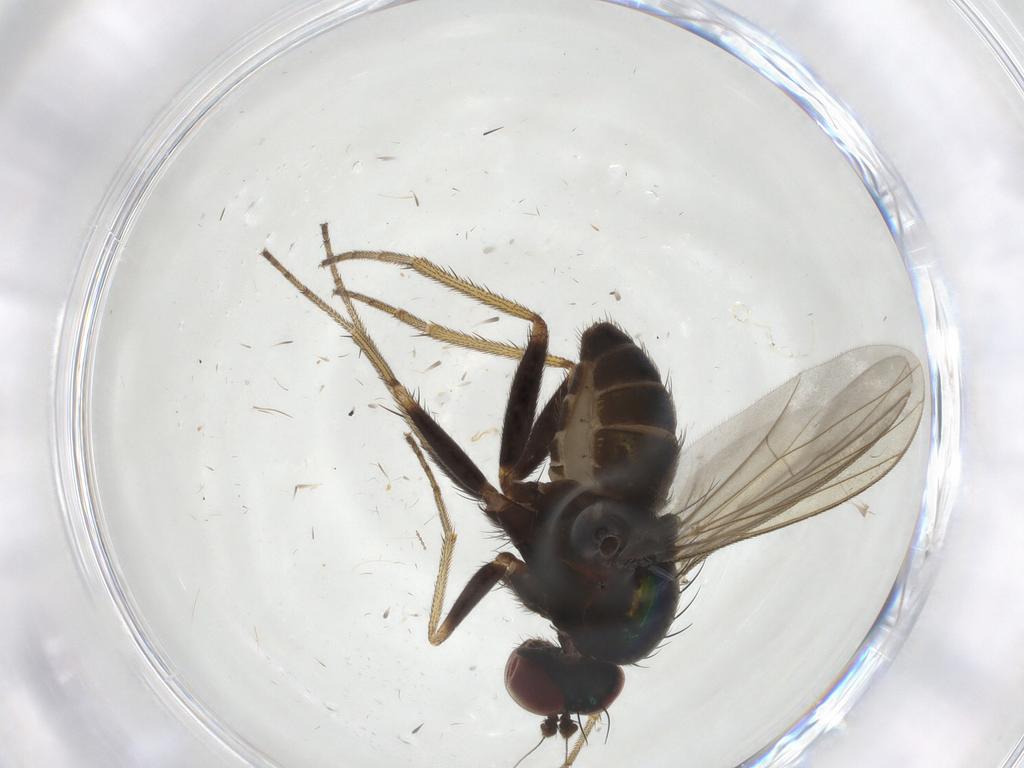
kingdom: Animalia
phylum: Arthropoda
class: Insecta
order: Diptera
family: Dolichopodidae
